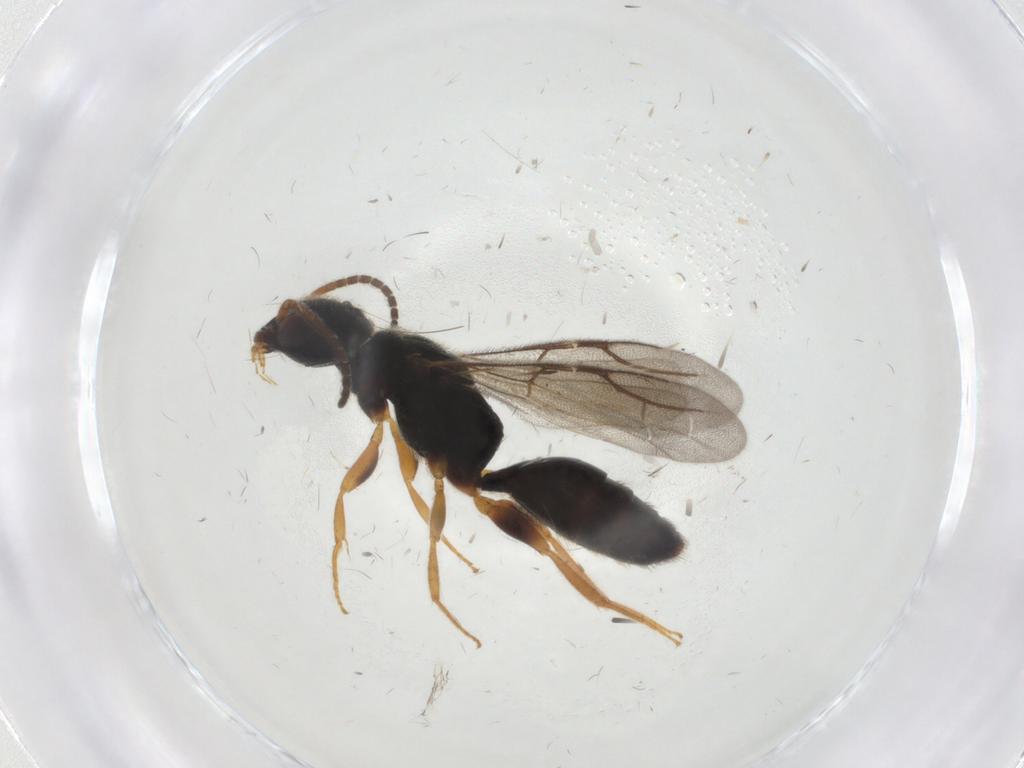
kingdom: Animalia
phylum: Arthropoda
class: Insecta
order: Hymenoptera
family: Bethylidae
